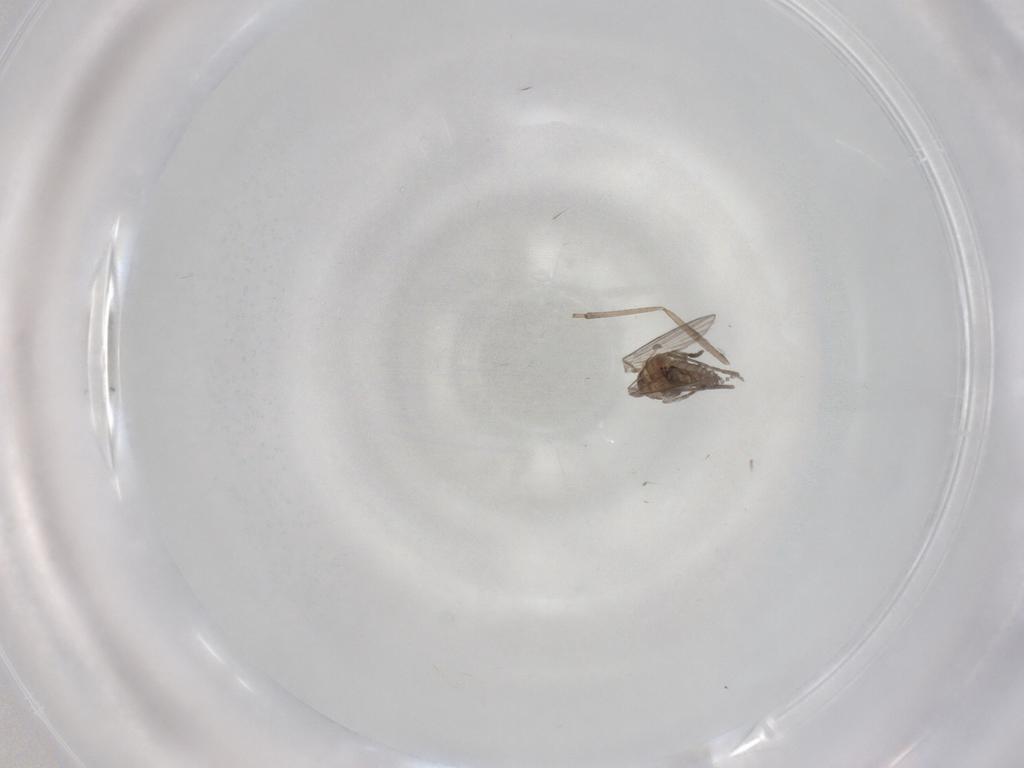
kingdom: Animalia
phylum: Arthropoda
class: Insecta
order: Diptera
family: Psychodidae
